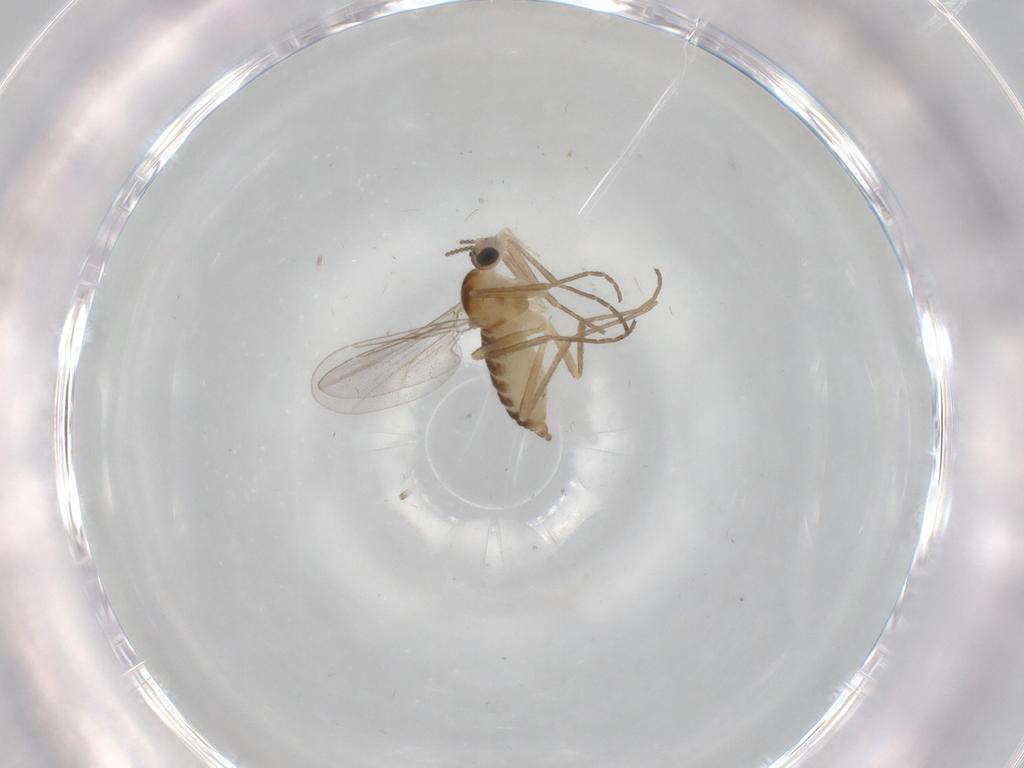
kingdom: Animalia
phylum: Arthropoda
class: Insecta
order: Diptera
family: Cecidomyiidae
